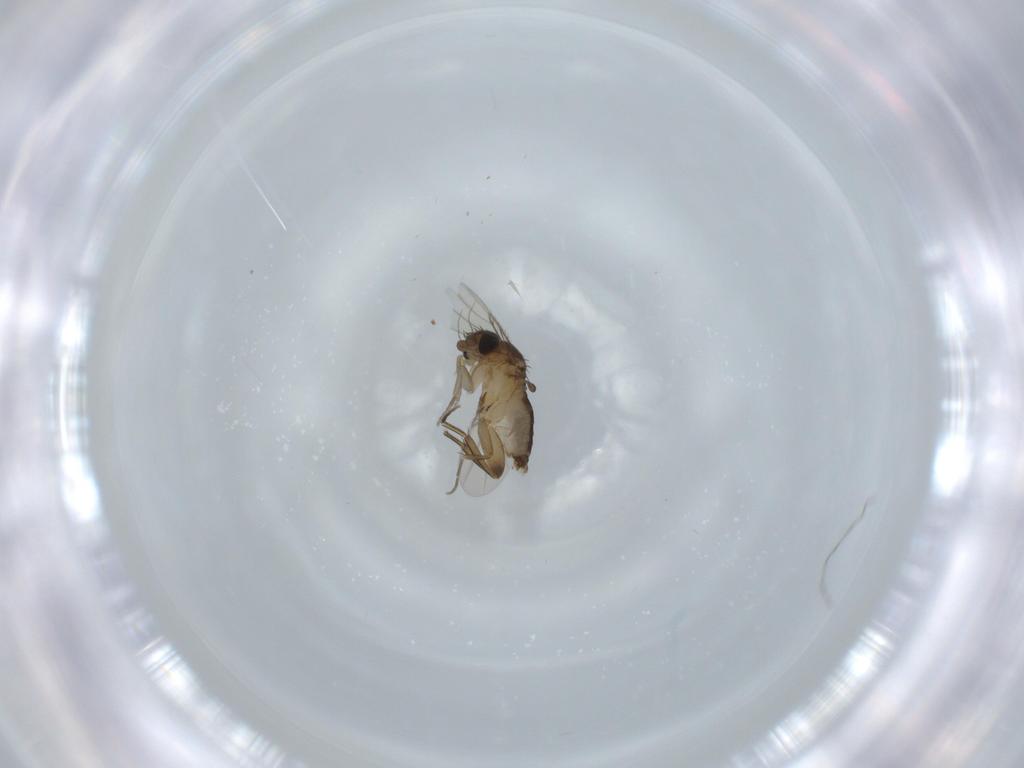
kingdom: Animalia
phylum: Arthropoda
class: Insecta
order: Diptera
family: Phoridae
